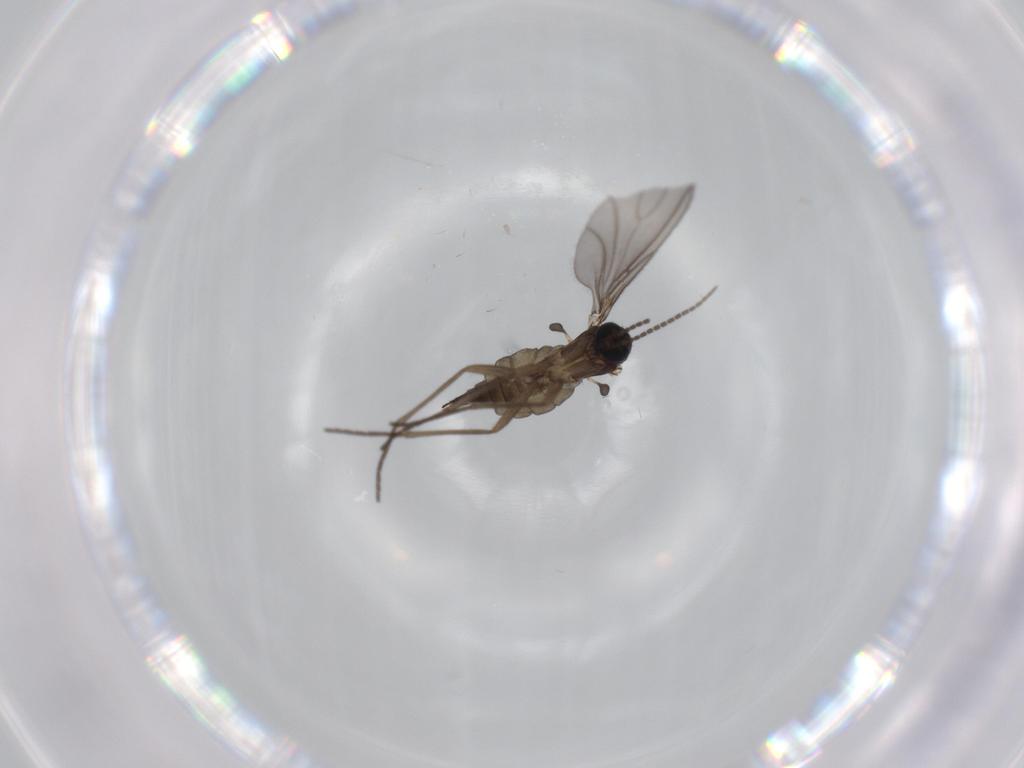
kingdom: Animalia
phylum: Arthropoda
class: Insecta
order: Diptera
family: Sciaridae
